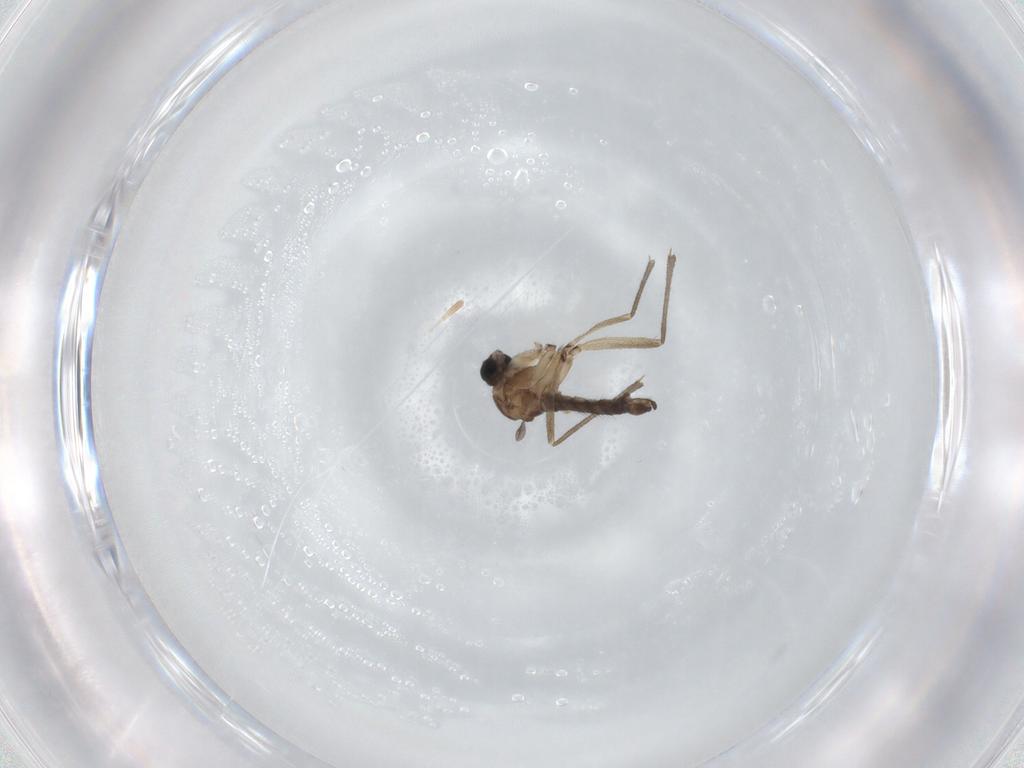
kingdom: Animalia
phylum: Arthropoda
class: Insecta
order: Diptera
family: Sciaridae
